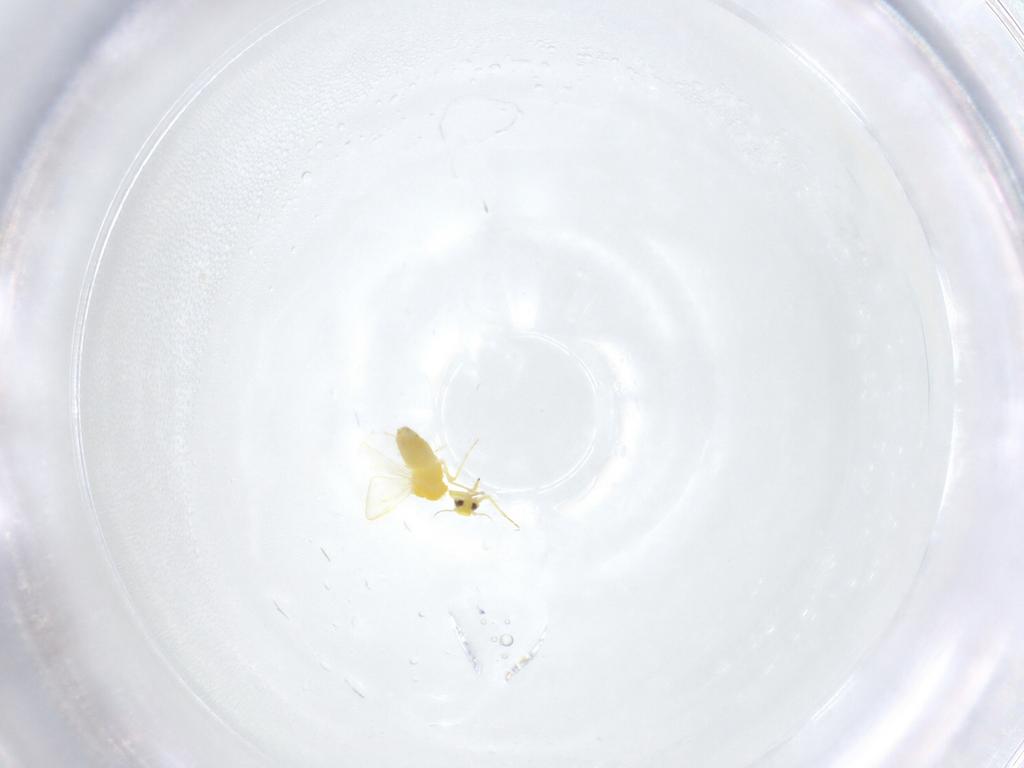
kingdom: Animalia
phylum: Arthropoda
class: Insecta
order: Hemiptera
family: Aleyrodidae
